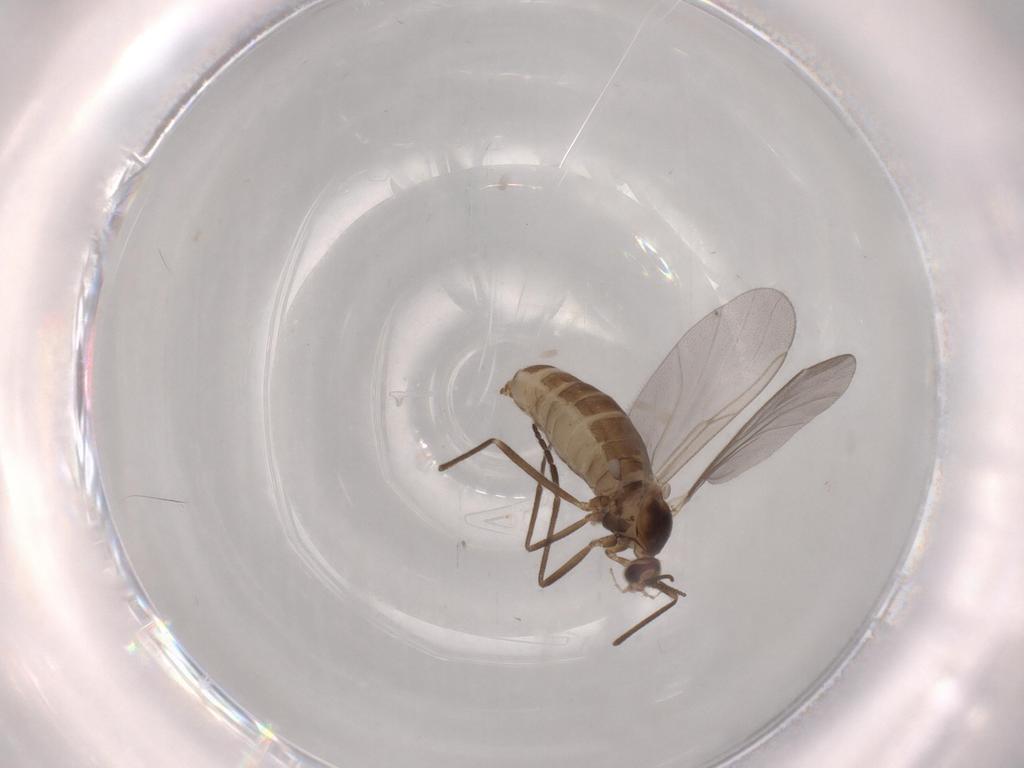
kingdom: Animalia
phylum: Arthropoda
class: Insecta
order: Diptera
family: Cecidomyiidae
